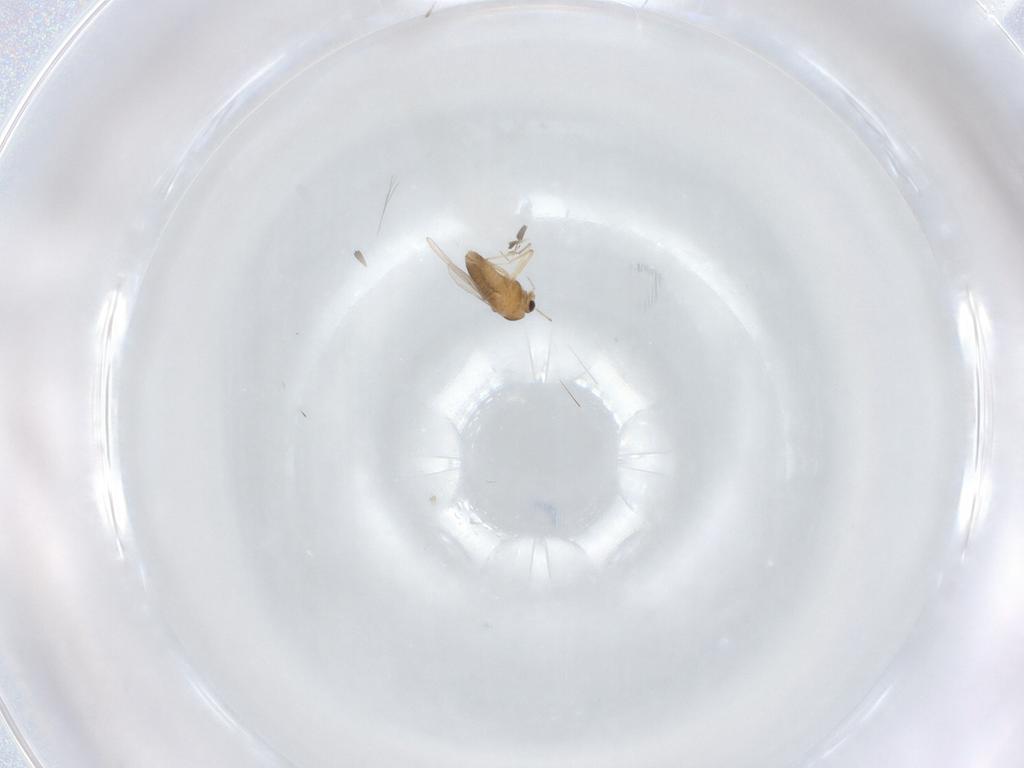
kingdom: Animalia
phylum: Arthropoda
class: Insecta
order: Diptera
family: Chironomidae
